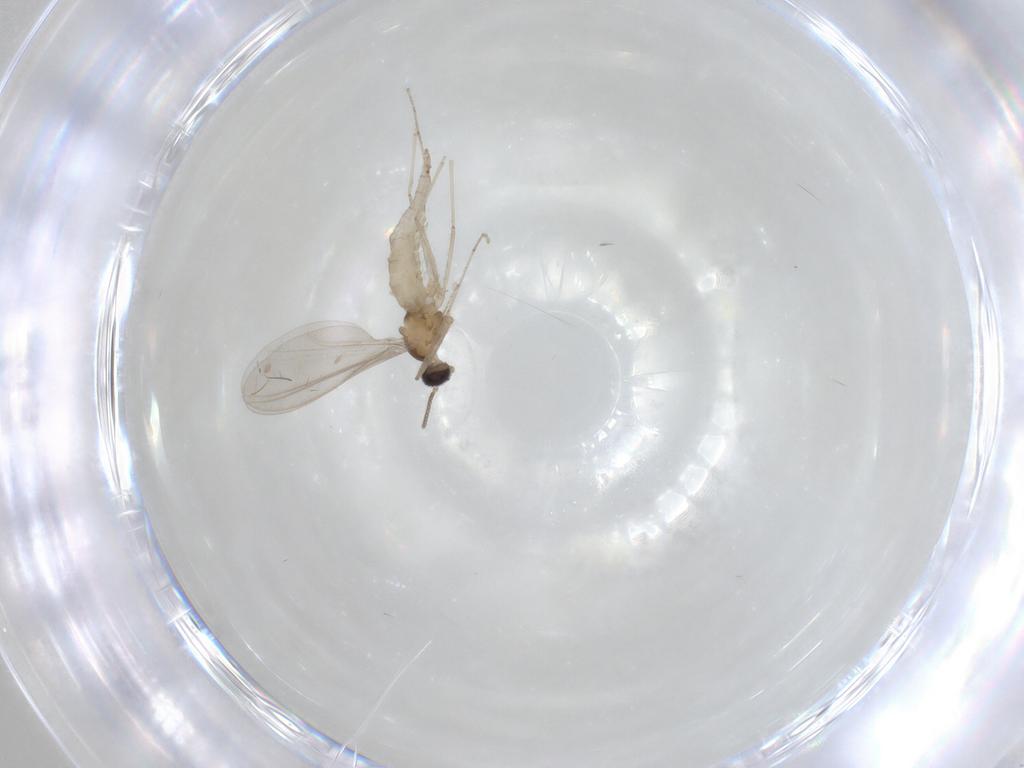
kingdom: Animalia
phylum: Arthropoda
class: Insecta
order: Diptera
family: Cecidomyiidae
